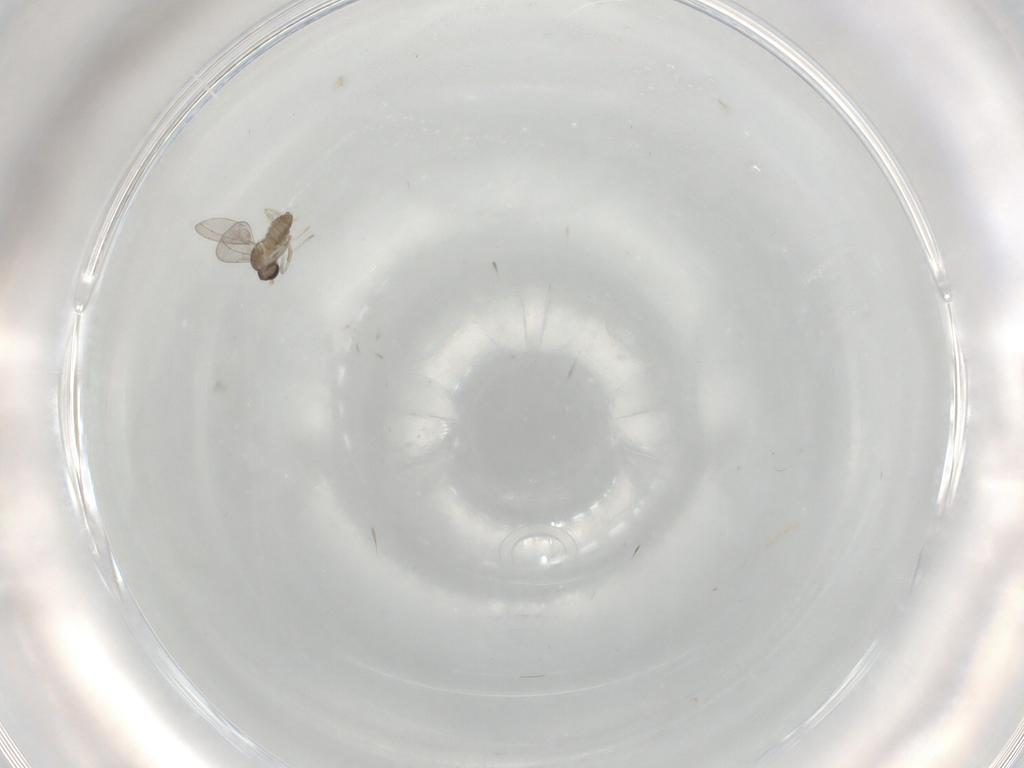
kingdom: Animalia
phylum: Arthropoda
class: Insecta
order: Diptera
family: Cecidomyiidae
